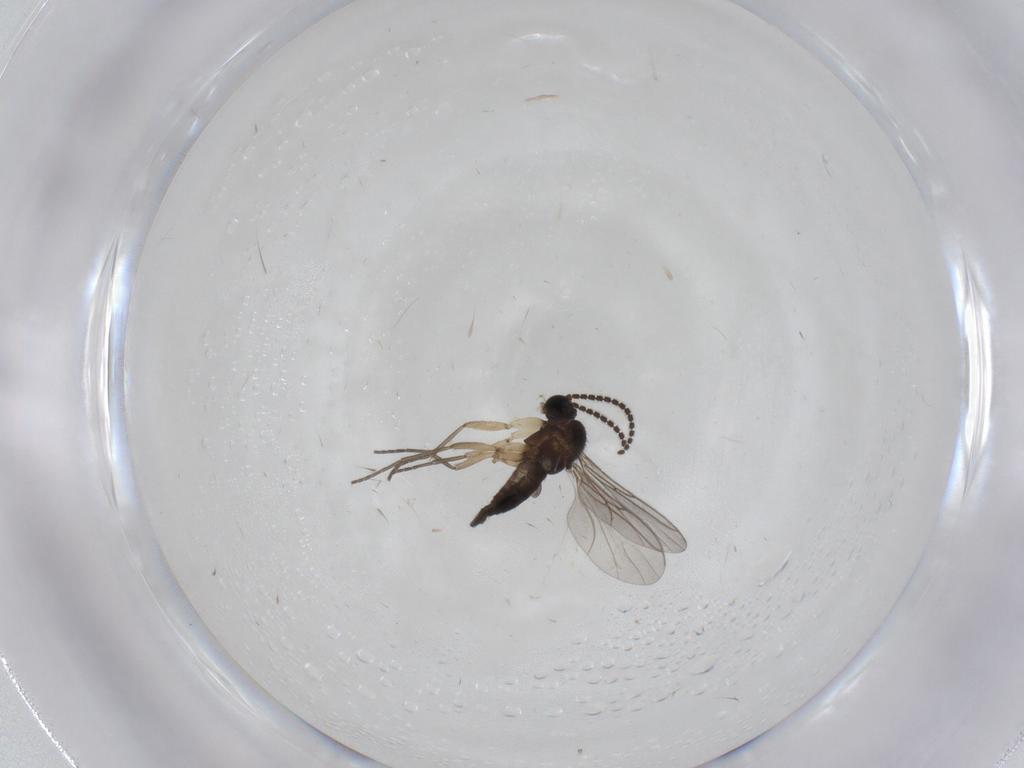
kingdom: Animalia
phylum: Arthropoda
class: Insecta
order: Diptera
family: Sciaridae
